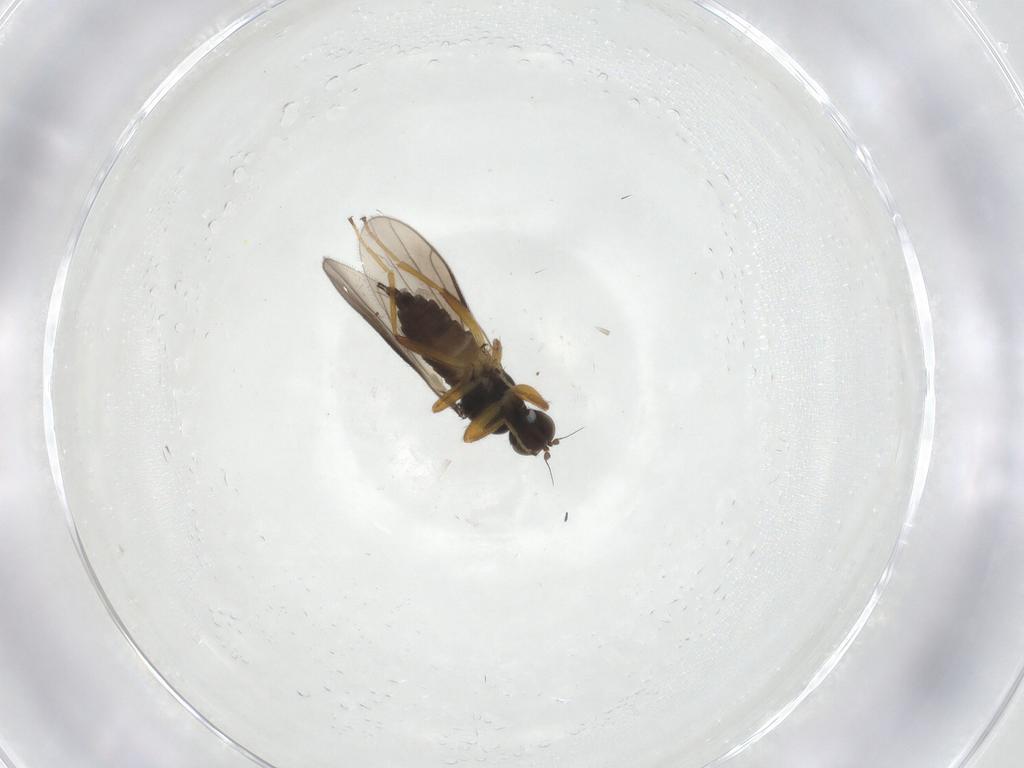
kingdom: Animalia
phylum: Arthropoda
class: Insecta
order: Diptera
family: Hybotidae
